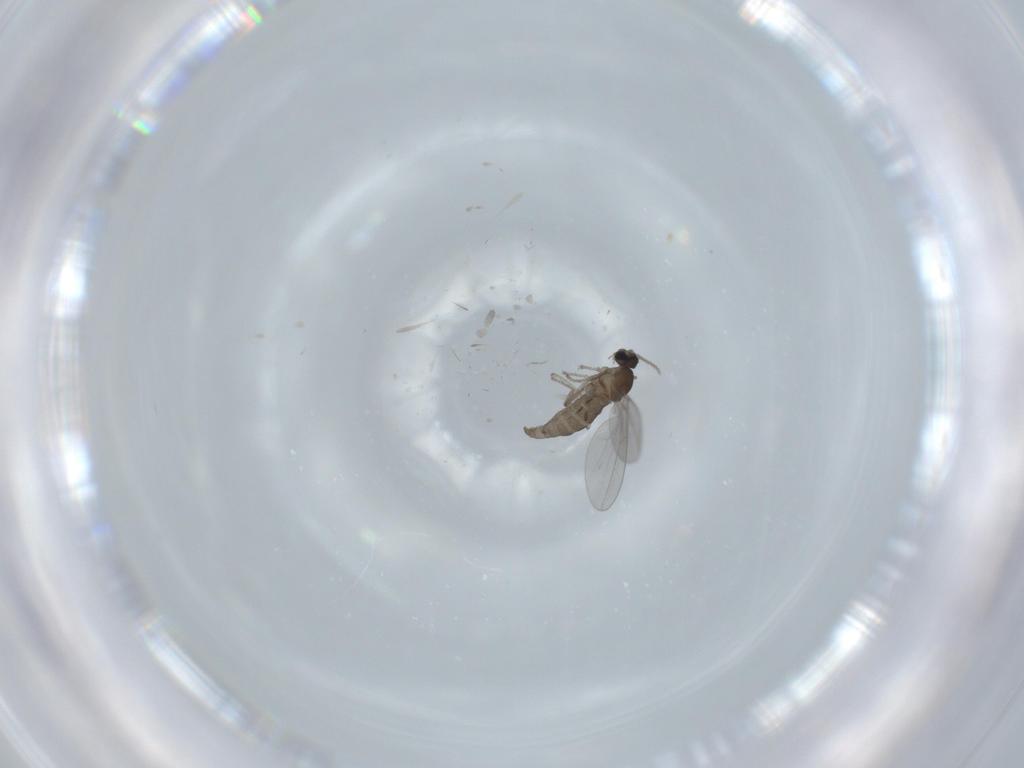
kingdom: Animalia
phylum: Arthropoda
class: Insecta
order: Diptera
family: Cecidomyiidae
